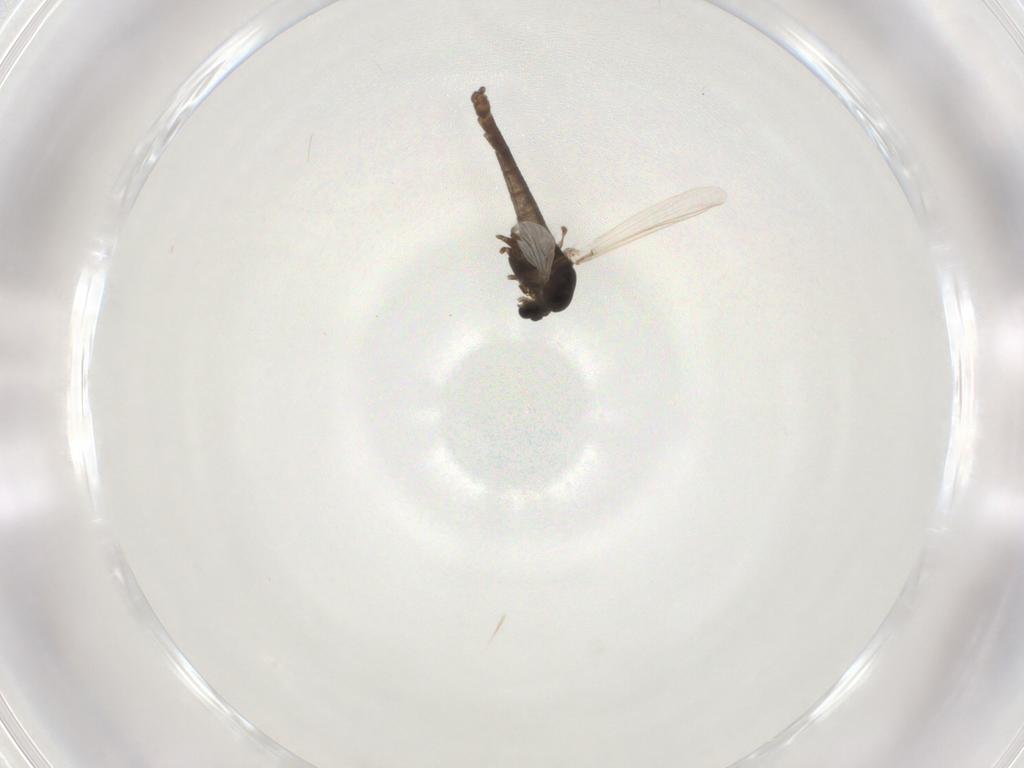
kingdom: Animalia
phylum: Arthropoda
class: Insecta
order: Diptera
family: Chironomidae
